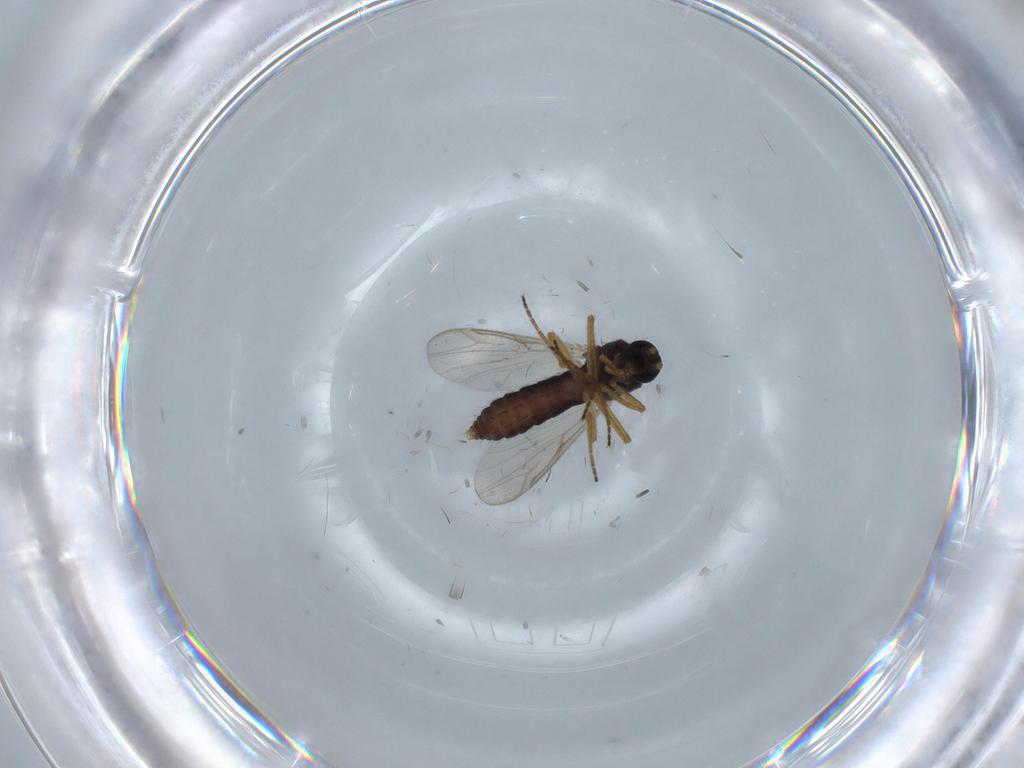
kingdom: Animalia
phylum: Arthropoda
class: Insecta
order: Diptera
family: Ceratopogonidae
